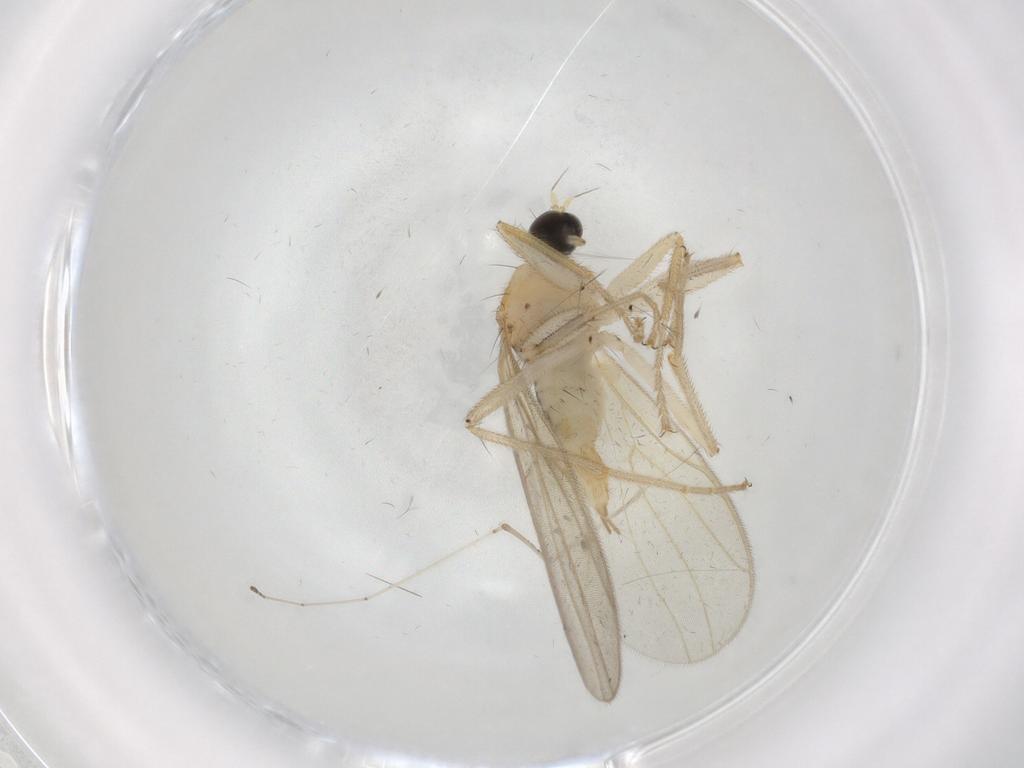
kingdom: Animalia
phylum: Arthropoda
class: Insecta
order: Diptera
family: Hybotidae
